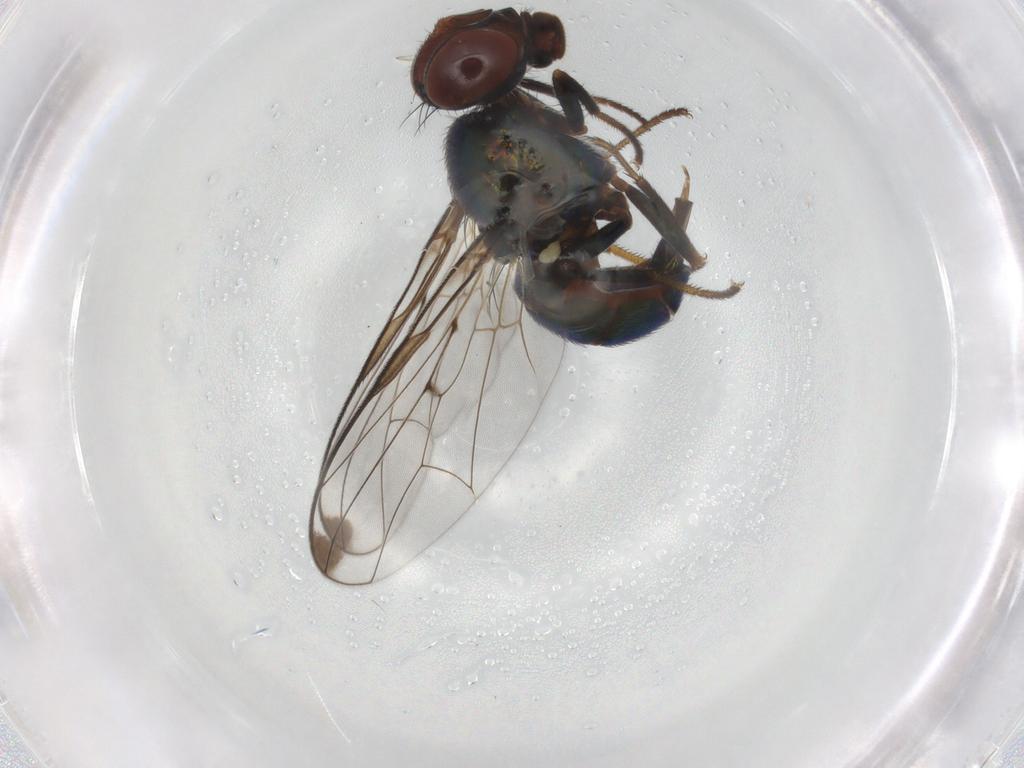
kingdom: Animalia
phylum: Arthropoda
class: Insecta
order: Diptera
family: Platystomatidae
